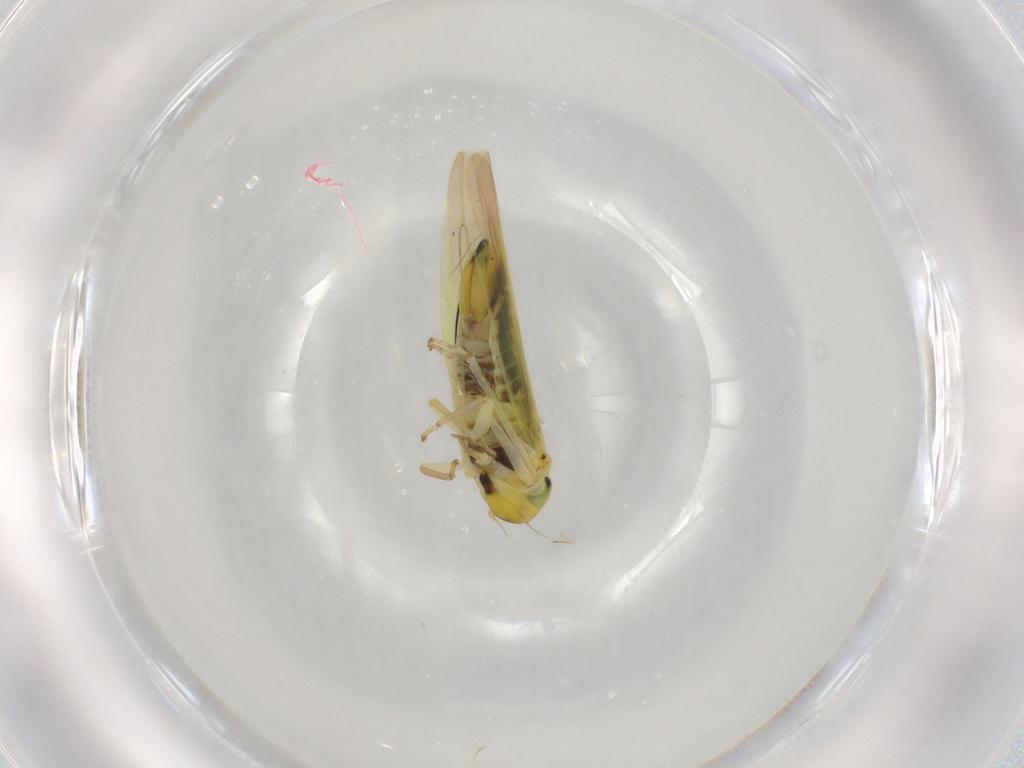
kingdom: Animalia
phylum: Arthropoda
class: Insecta
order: Hemiptera
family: Cicadellidae
